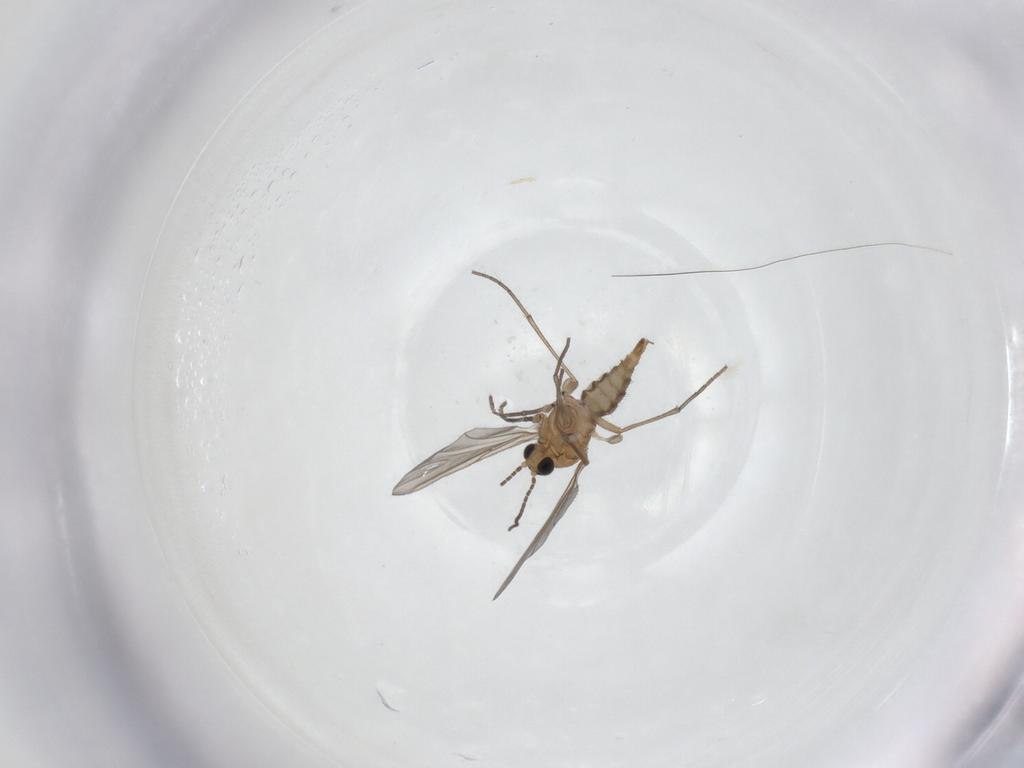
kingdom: Animalia
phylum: Arthropoda
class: Insecta
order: Diptera
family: Sciaridae
